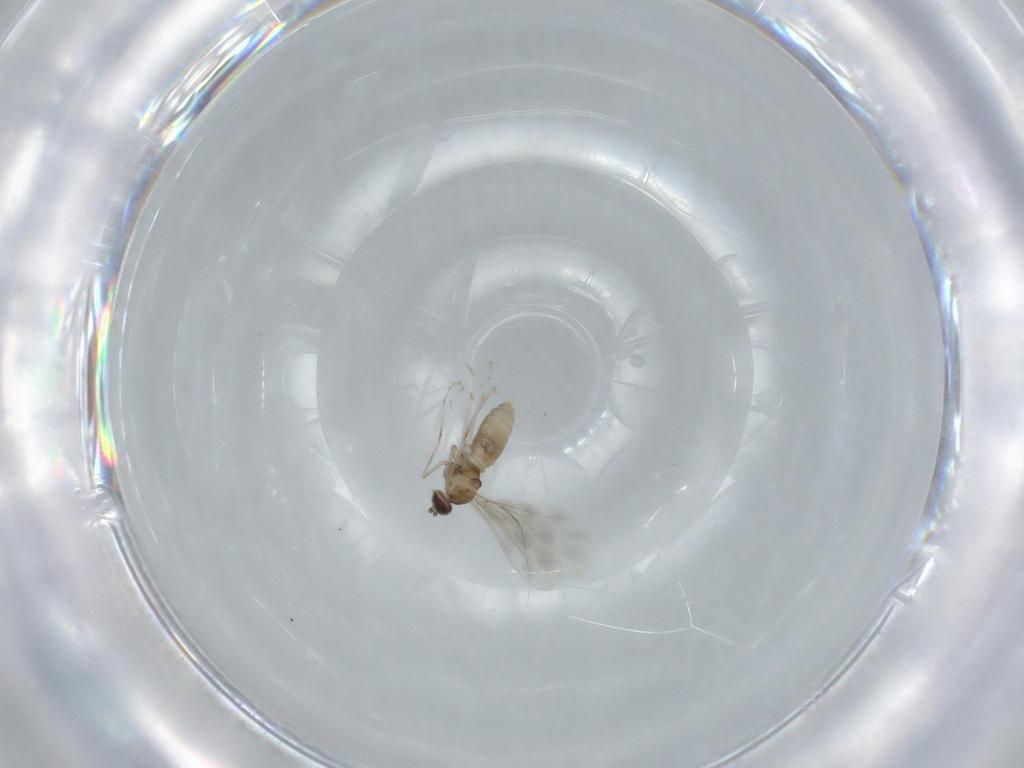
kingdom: Animalia
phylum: Arthropoda
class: Insecta
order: Diptera
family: Cecidomyiidae
